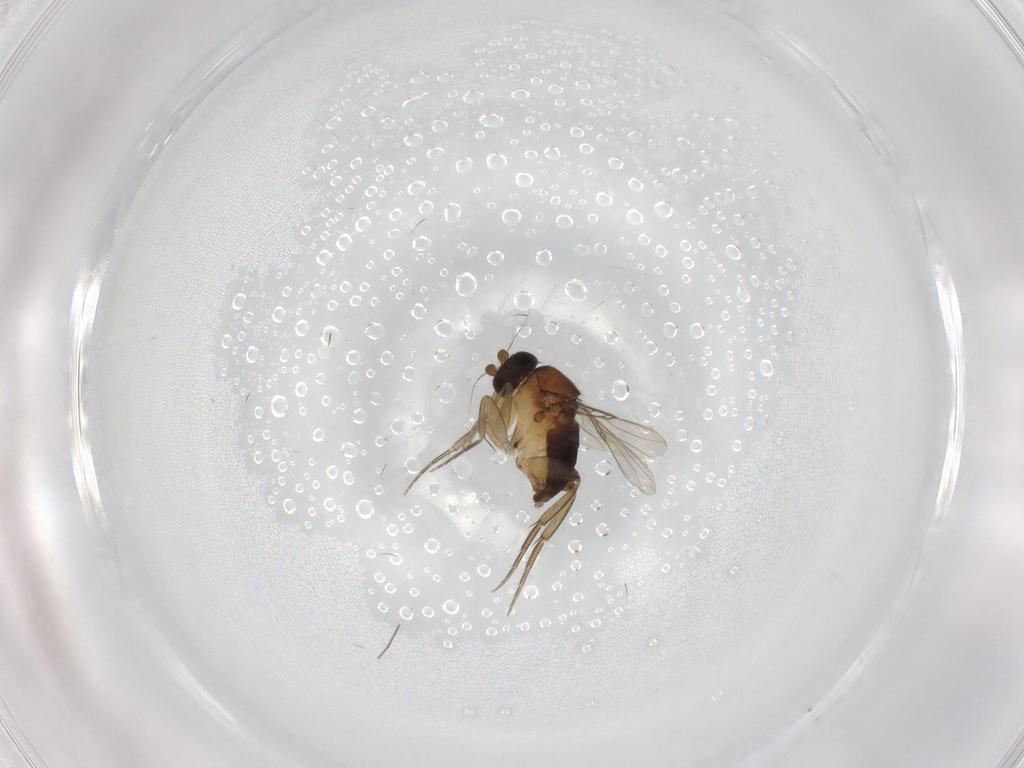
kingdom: Animalia
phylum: Arthropoda
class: Insecta
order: Diptera
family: Phoridae
